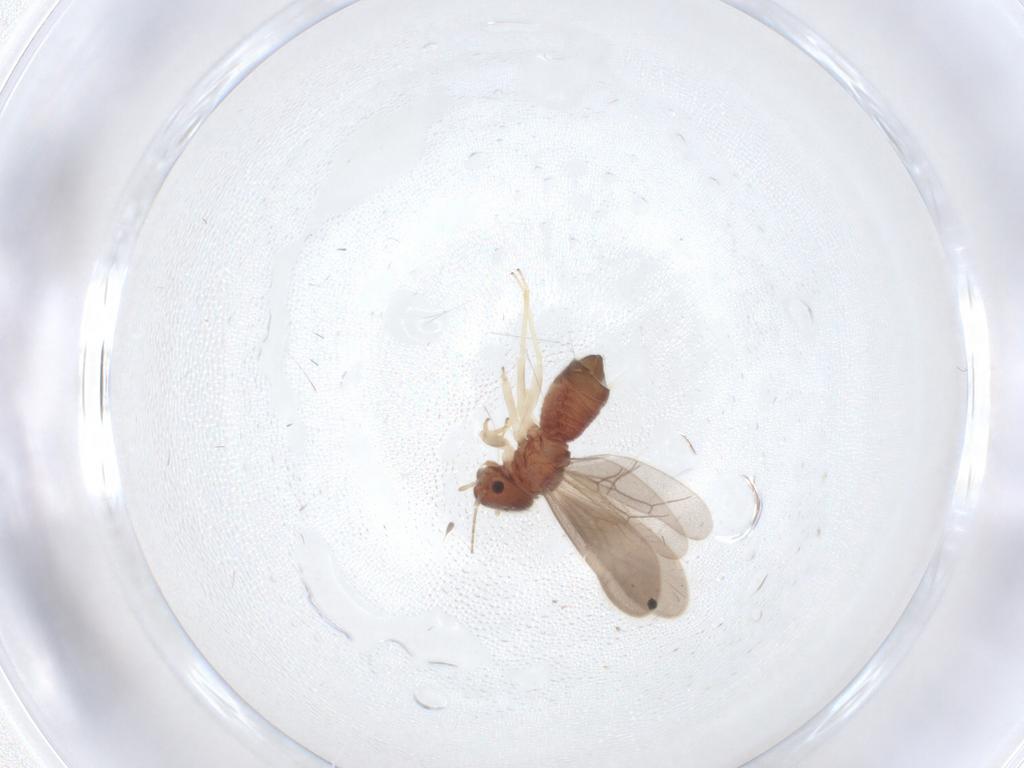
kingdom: Animalia
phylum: Arthropoda
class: Insecta
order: Psocodea
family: Archipsocidae
